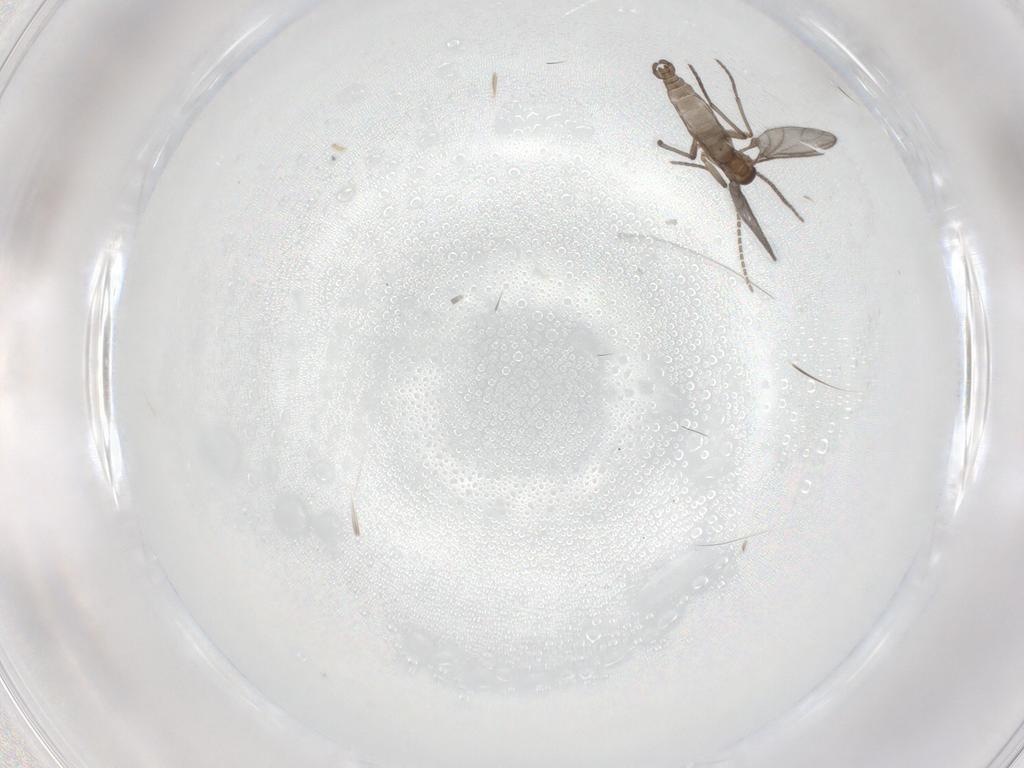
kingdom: Animalia
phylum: Arthropoda
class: Insecta
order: Diptera
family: Sciaridae
